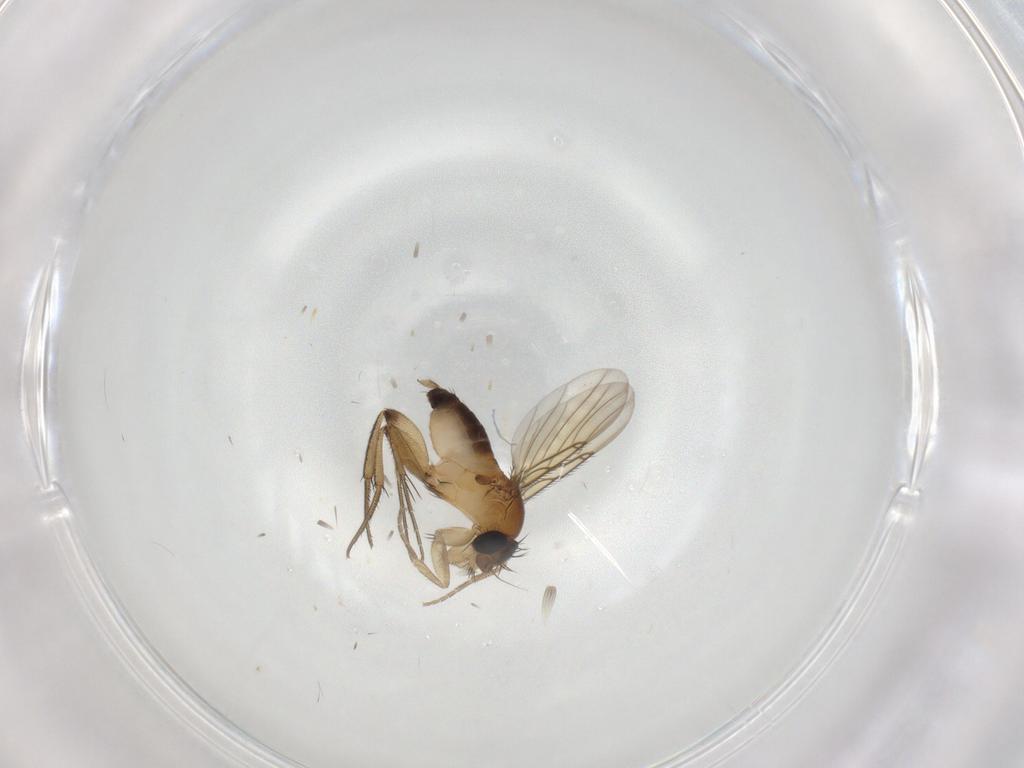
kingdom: Animalia
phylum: Arthropoda
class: Insecta
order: Diptera
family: Phoridae
